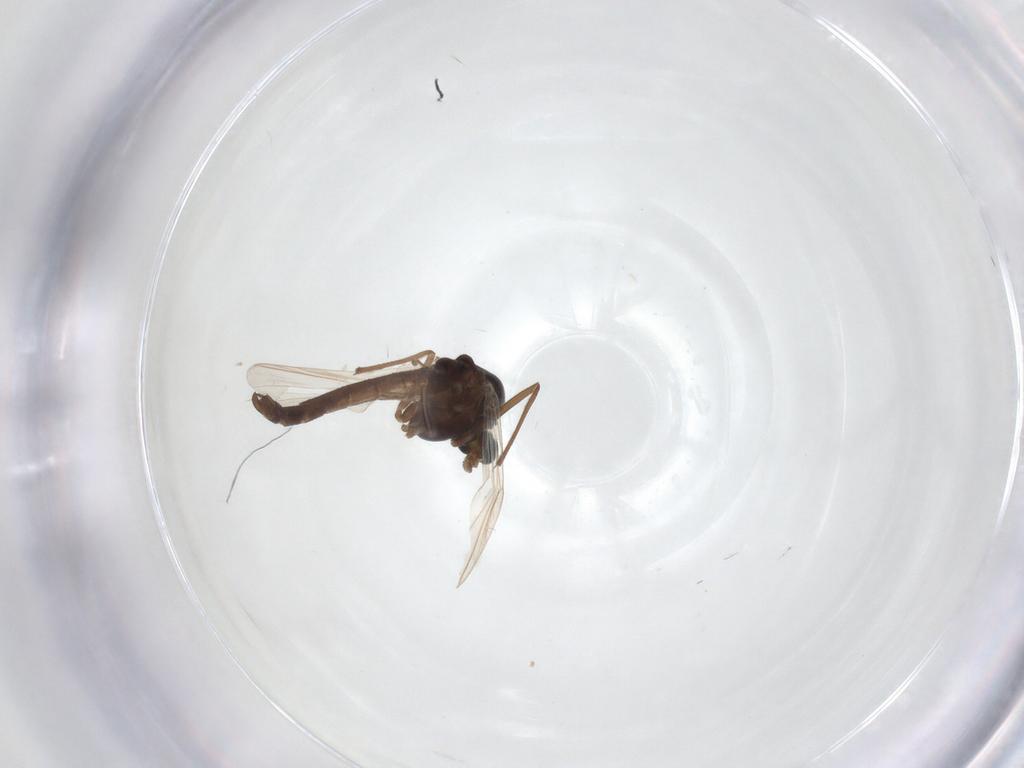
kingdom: Animalia
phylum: Arthropoda
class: Insecta
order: Diptera
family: Chironomidae
